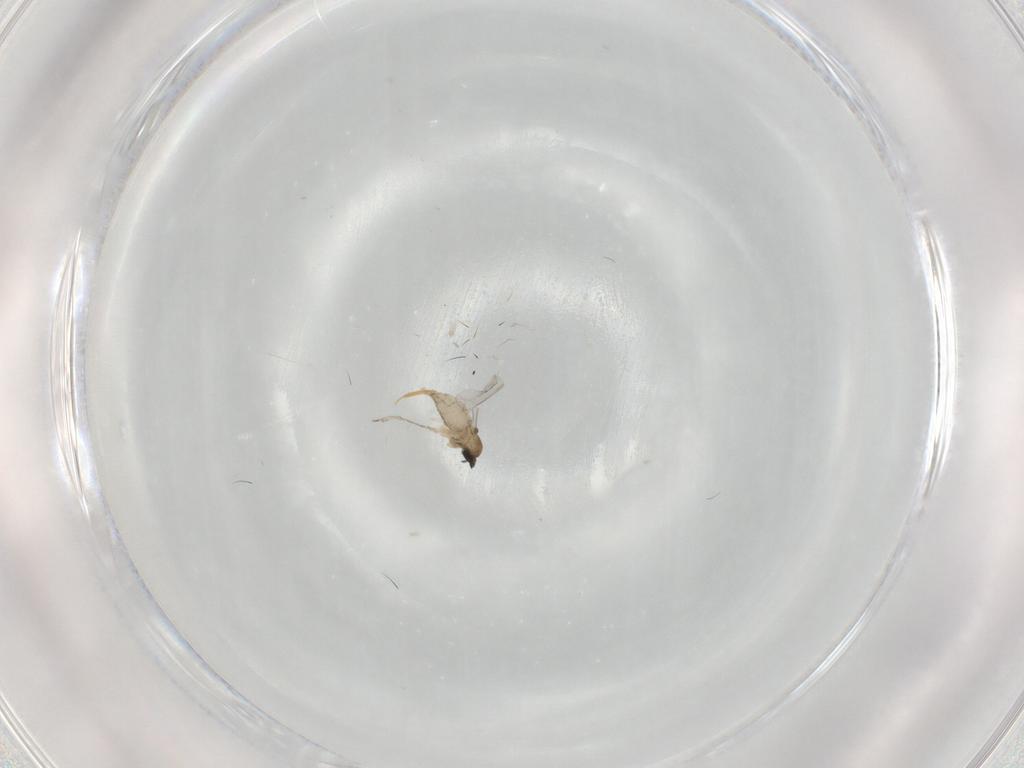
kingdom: Animalia
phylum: Arthropoda
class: Insecta
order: Diptera
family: Cecidomyiidae
